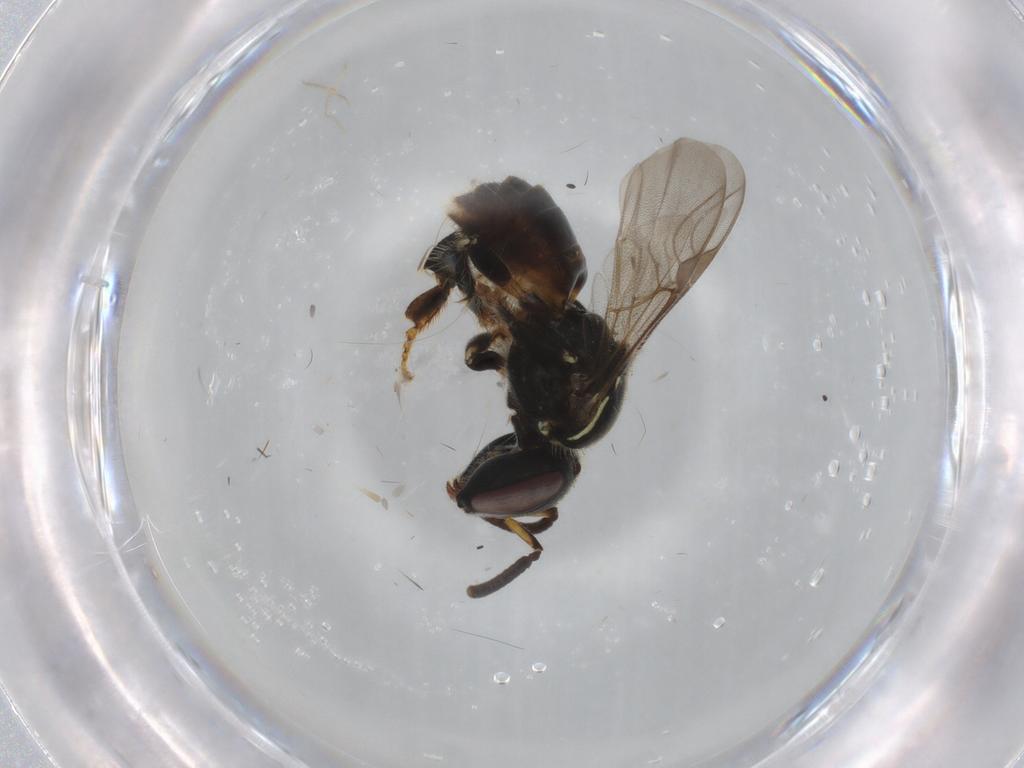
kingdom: Animalia
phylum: Arthropoda
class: Insecta
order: Hymenoptera
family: Apidae
